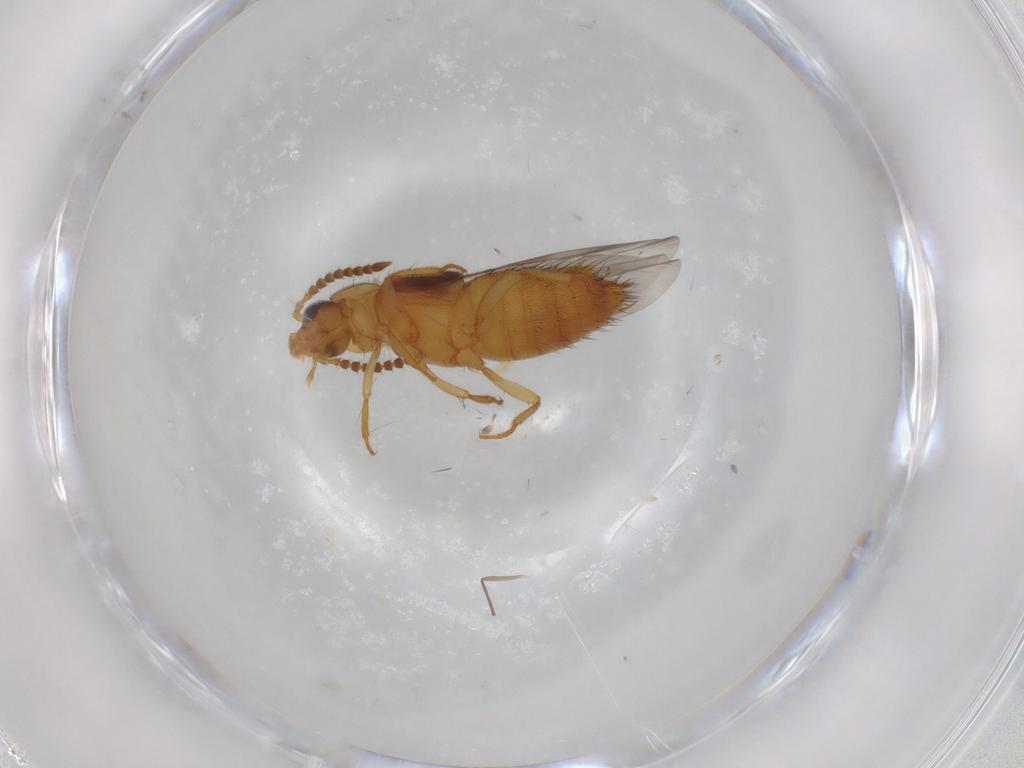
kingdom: Animalia
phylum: Arthropoda
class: Insecta
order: Coleoptera
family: Staphylinidae
